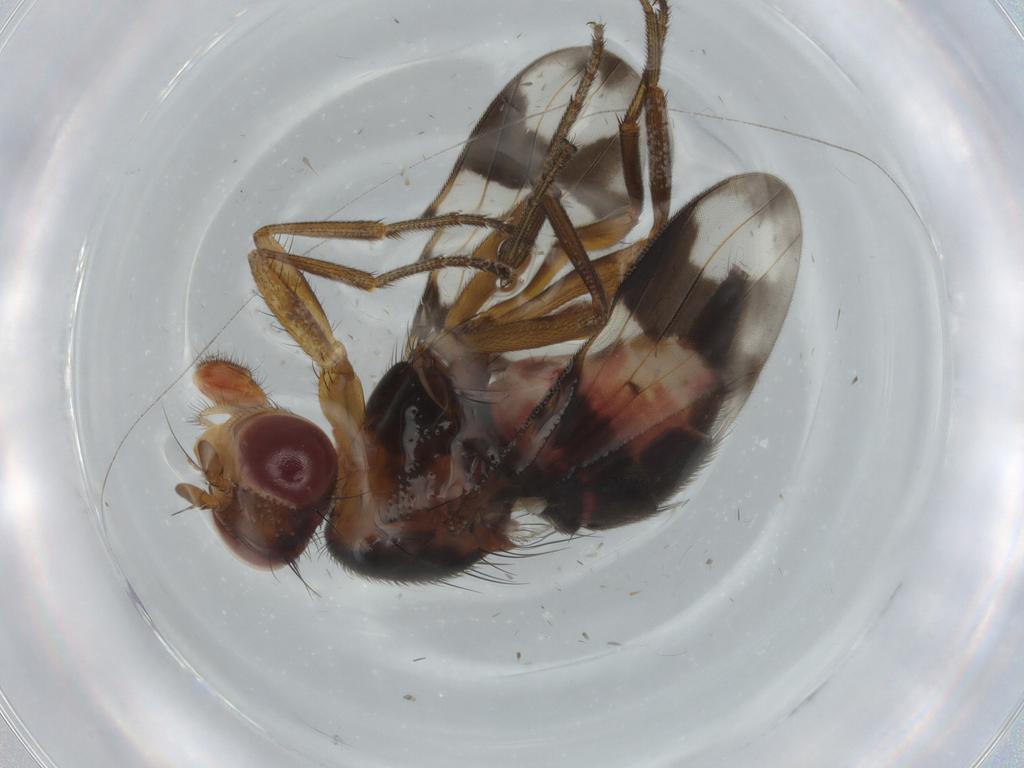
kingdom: Animalia
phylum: Arthropoda
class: Insecta
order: Diptera
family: Richardiidae
